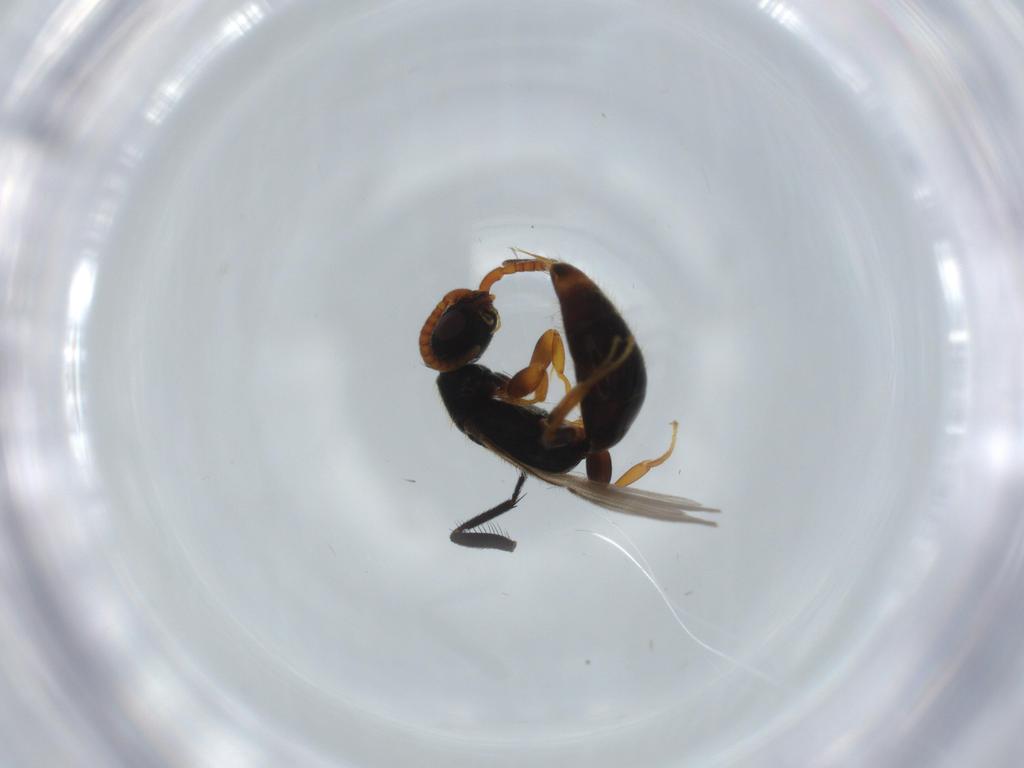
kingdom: Animalia
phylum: Arthropoda
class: Insecta
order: Hymenoptera
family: Bethylidae
